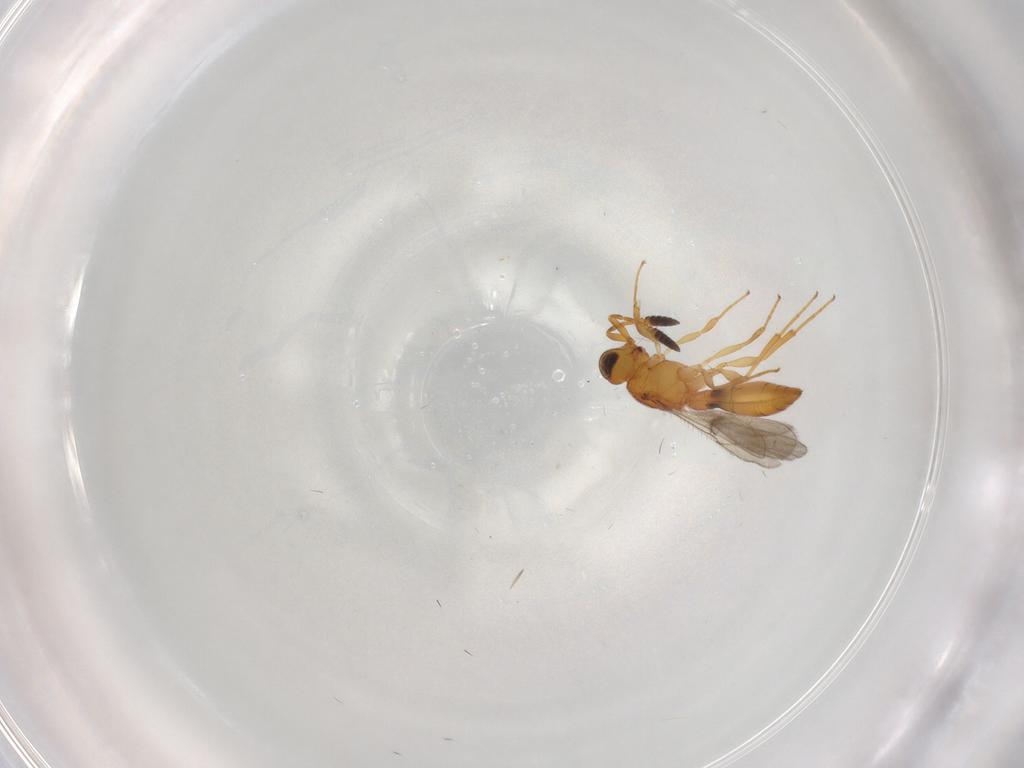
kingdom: Animalia
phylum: Arthropoda
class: Insecta
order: Hymenoptera
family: Scelionidae
